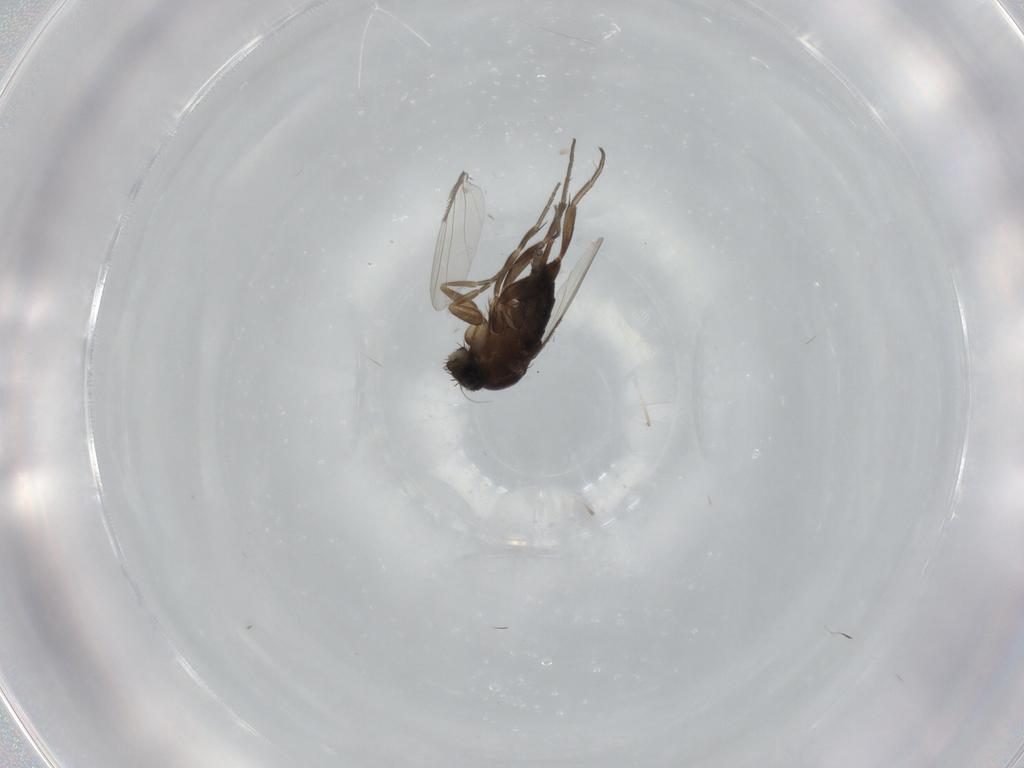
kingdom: Animalia
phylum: Arthropoda
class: Insecta
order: Diptera
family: Phoridae
